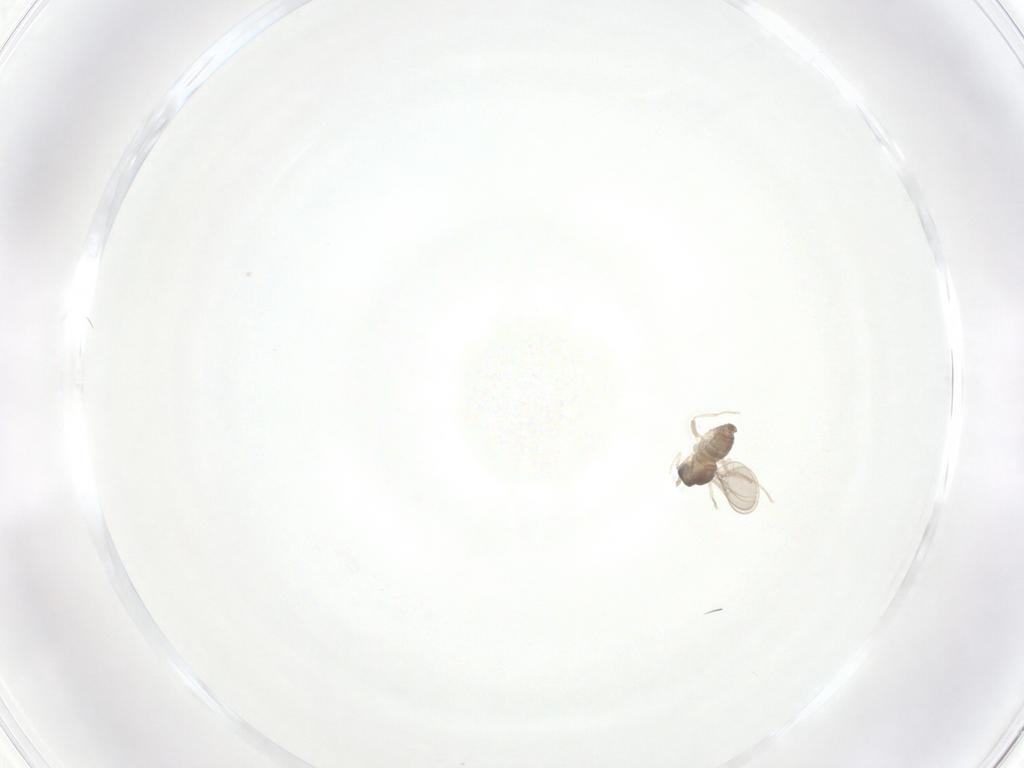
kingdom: Animalia
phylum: Arthropoda
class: Insecta
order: Diptera
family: Cecidomyiidae
